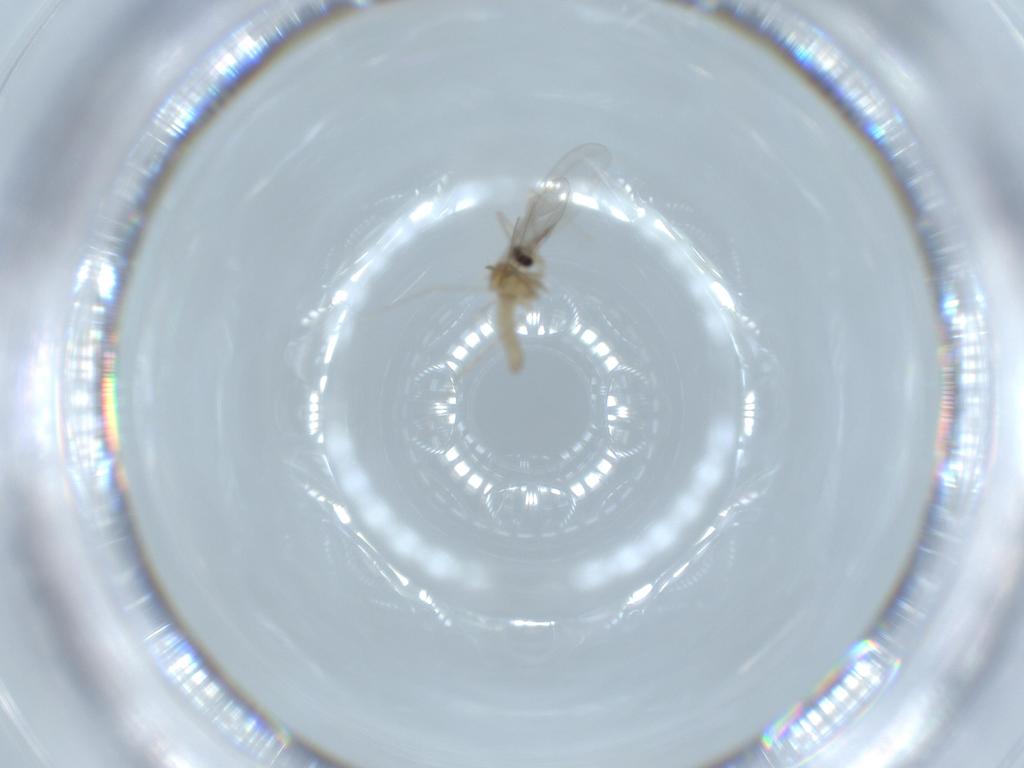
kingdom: Animalia
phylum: Arthropoda
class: Insecta
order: Diptera
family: Cecidomyiidae
